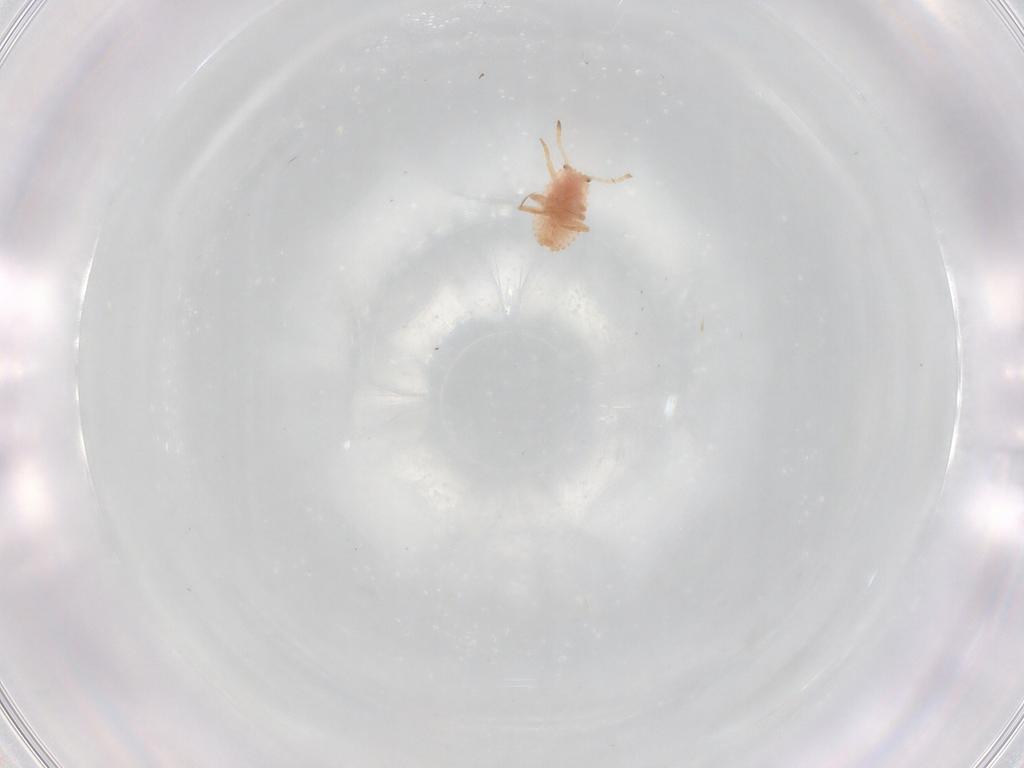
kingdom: Animalia
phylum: Arthropoda
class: Insecta
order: Hemiptera
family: Coccoidea_incertae_sedis
